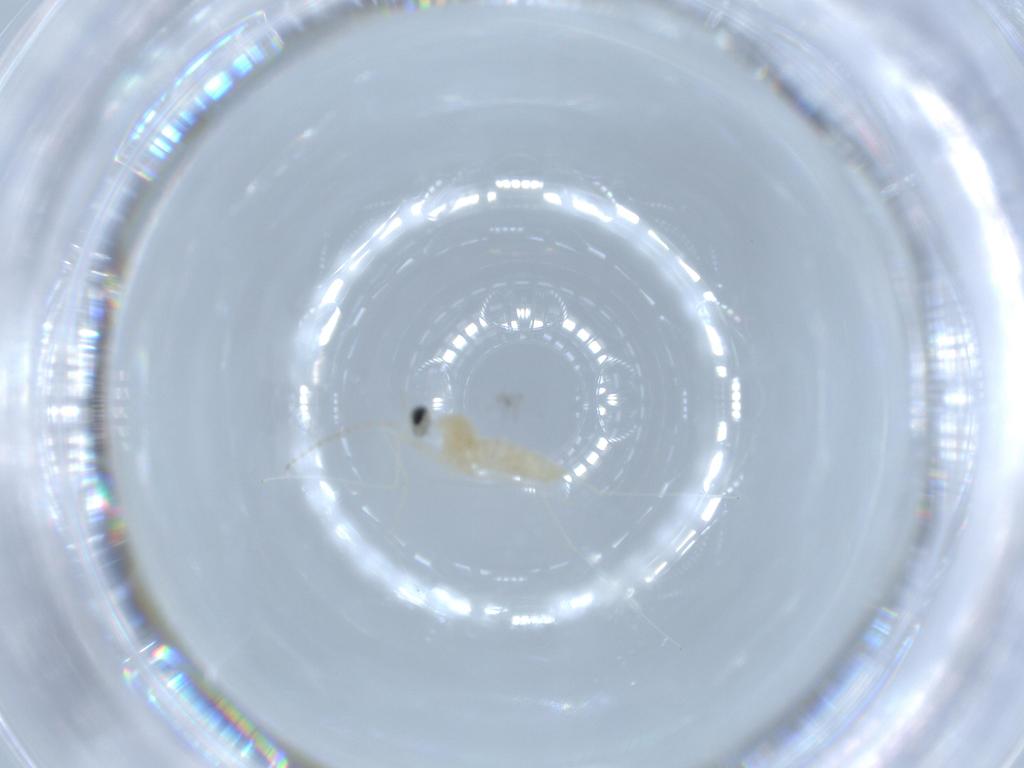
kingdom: Animalia
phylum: Arthropoda
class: Insecta
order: Diptera
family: Cecidomyiidae
